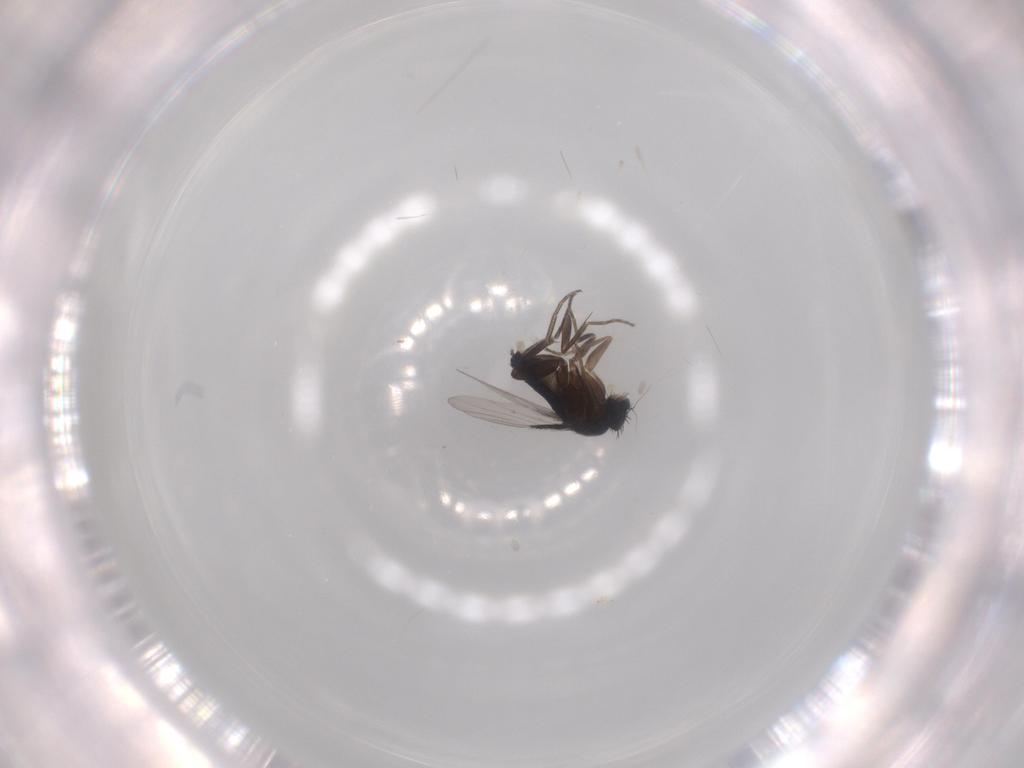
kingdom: Animalia
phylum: Arthropoda
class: Insecta
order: Diptera
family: Phoridae
